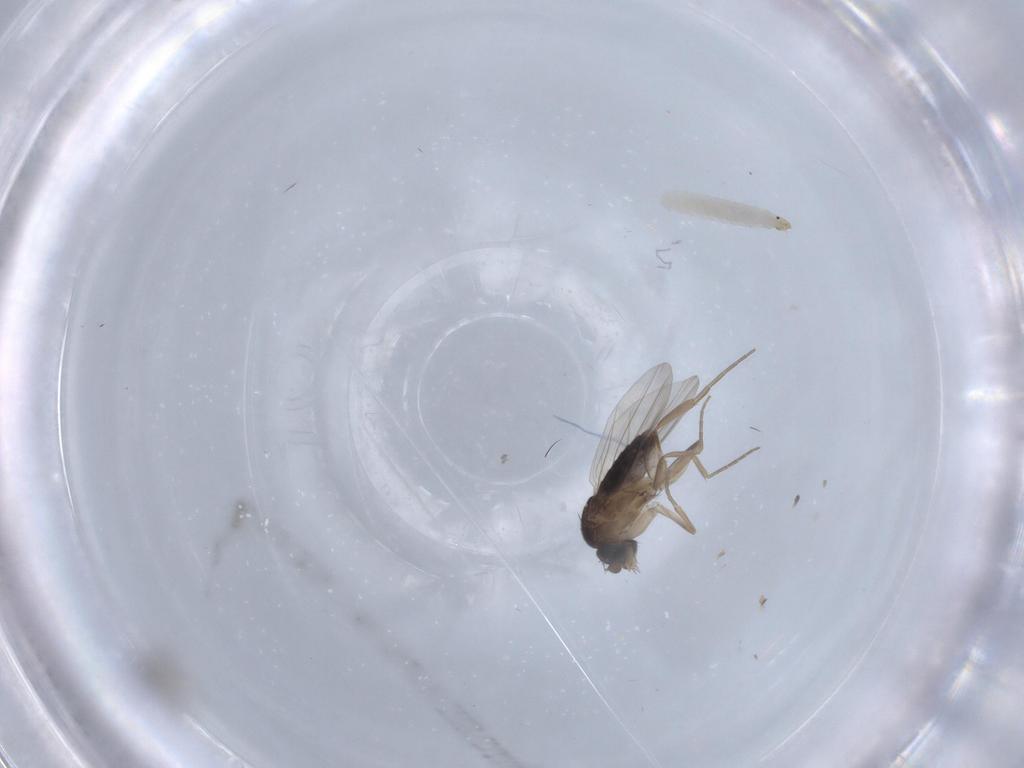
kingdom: Animalia
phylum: Arthropoda
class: Insecta
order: Diptera
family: Phoridae
